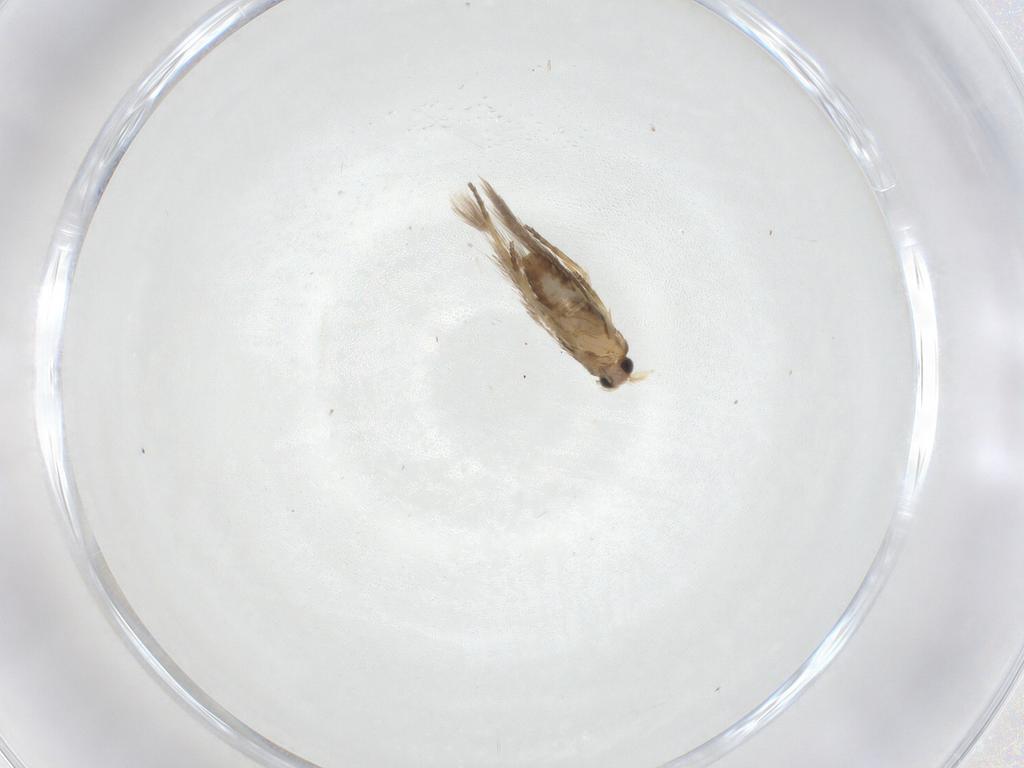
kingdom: Animalia
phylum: Arthropoda
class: Insecta
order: Lepidoptera
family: Nepticulidae
